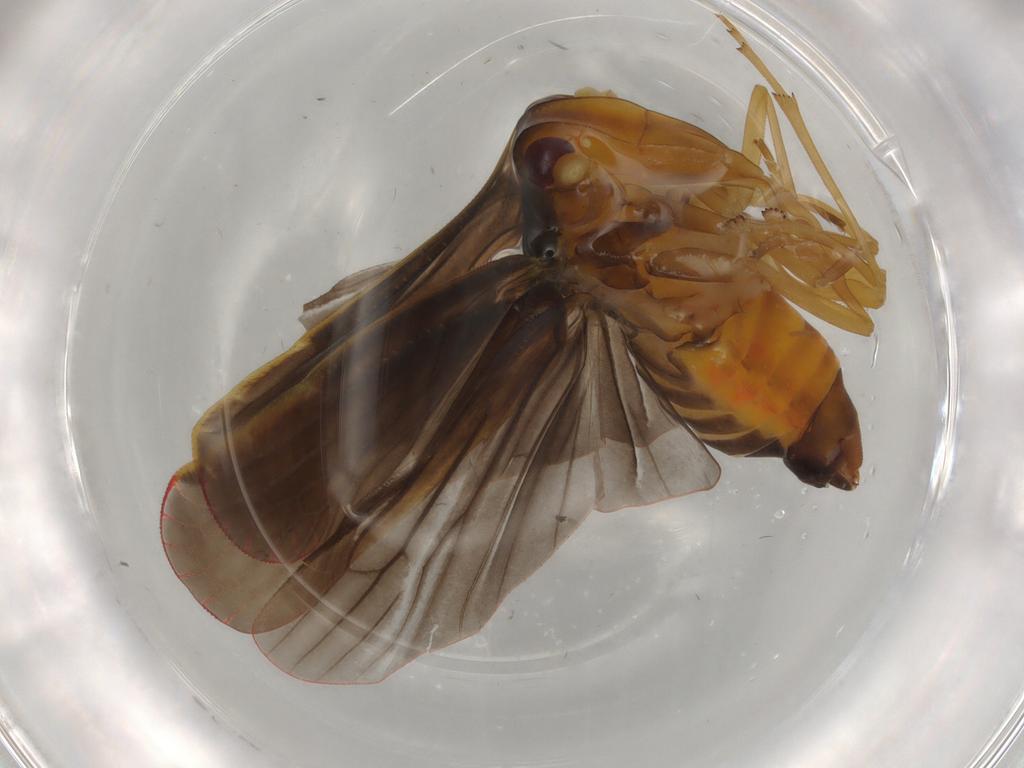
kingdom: Animalia
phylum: Arthropoda
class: Insecta
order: Hemiptera
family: Derbidae
